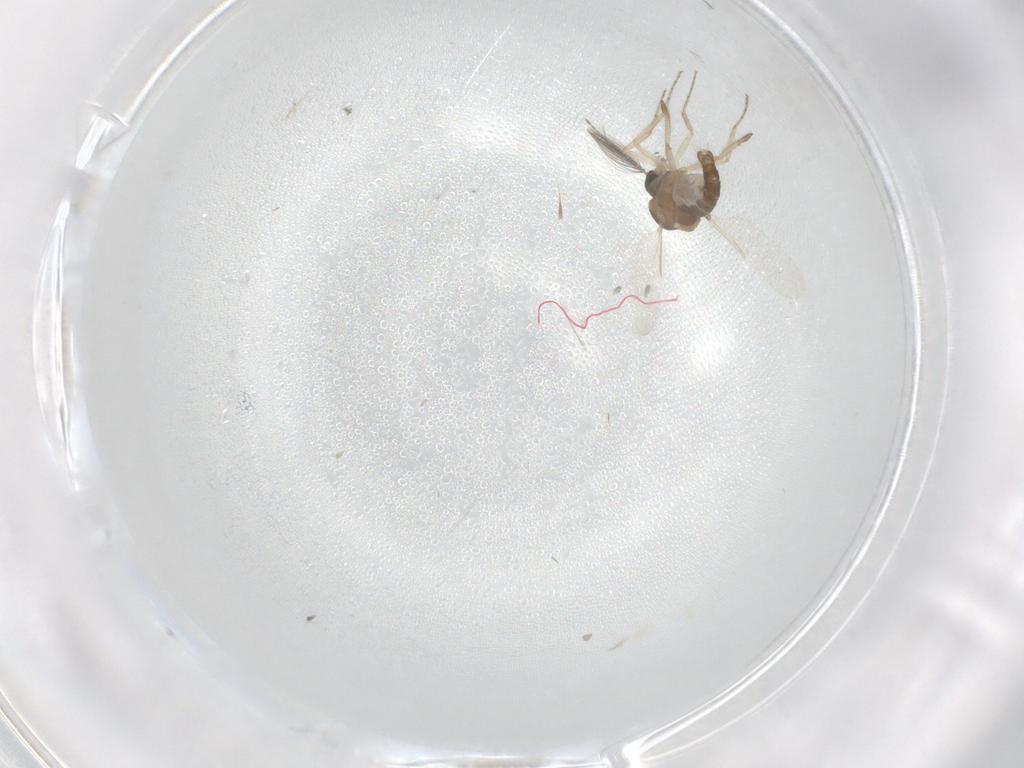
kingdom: Animalia
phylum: Arthropoda
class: Insecta
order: Diptera
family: Ceratopogonidae
